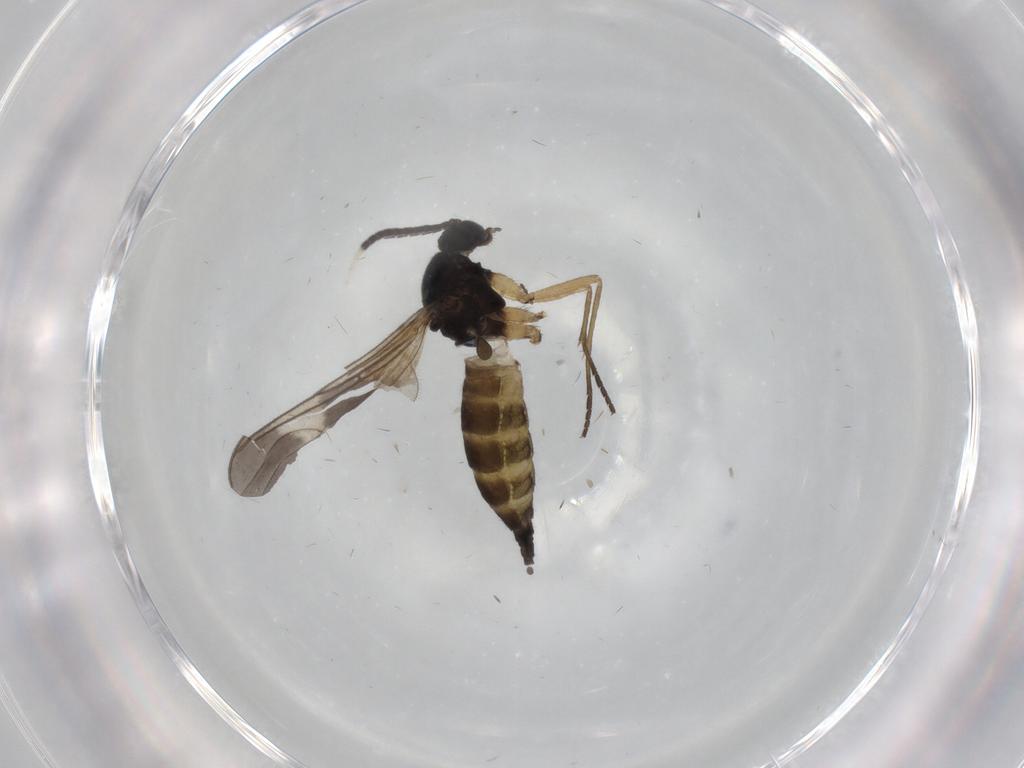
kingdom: Animalia
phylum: Arthropoda
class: Insecta
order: Diptera
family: Sciaridae
